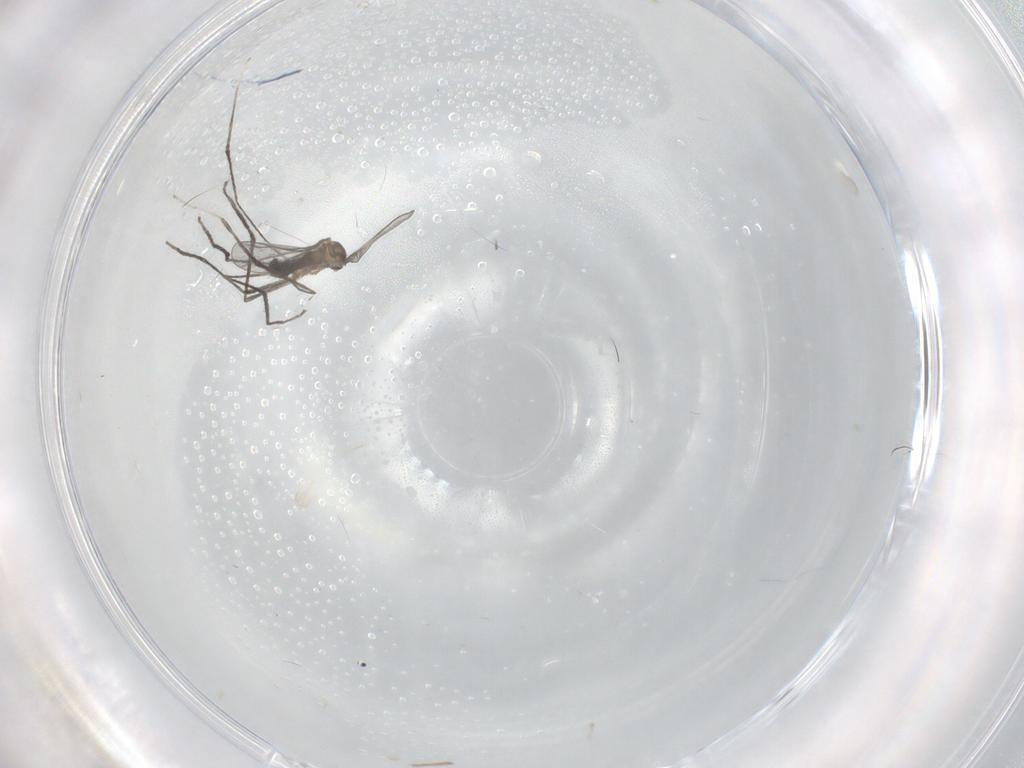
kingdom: Animalia
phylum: Arthropoda
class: Insecta
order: Diptera
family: Cecidomyiidae
